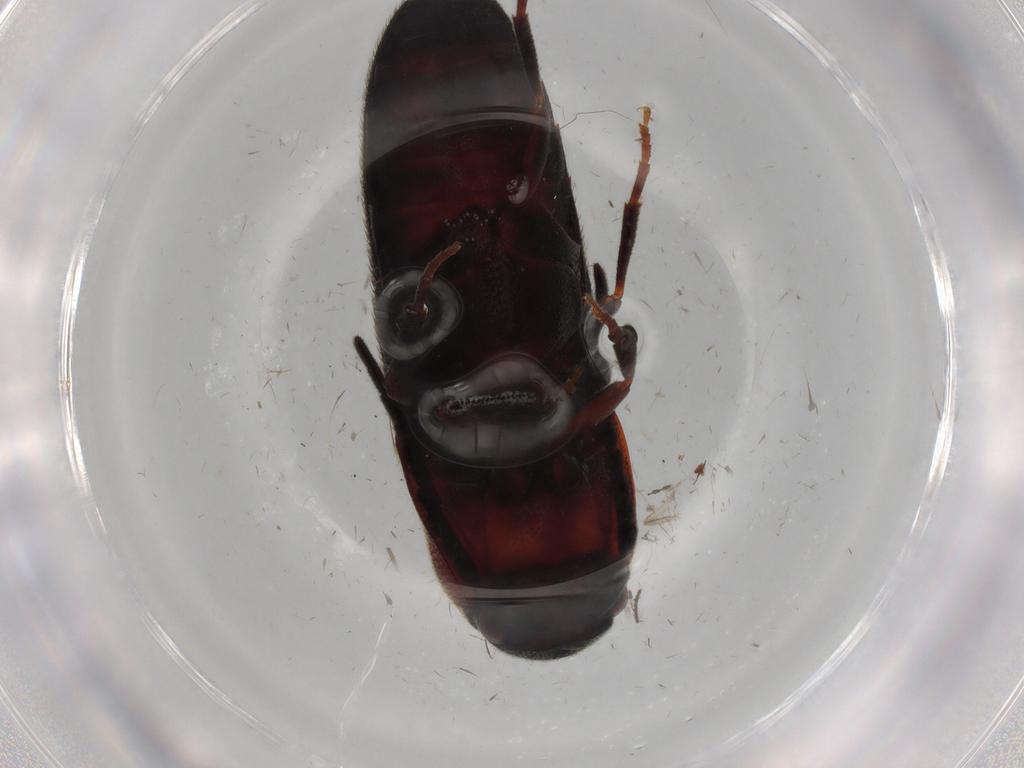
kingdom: Animalia
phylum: Arthropoda
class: Insecta
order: Coleoptera
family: Eucnemidae
